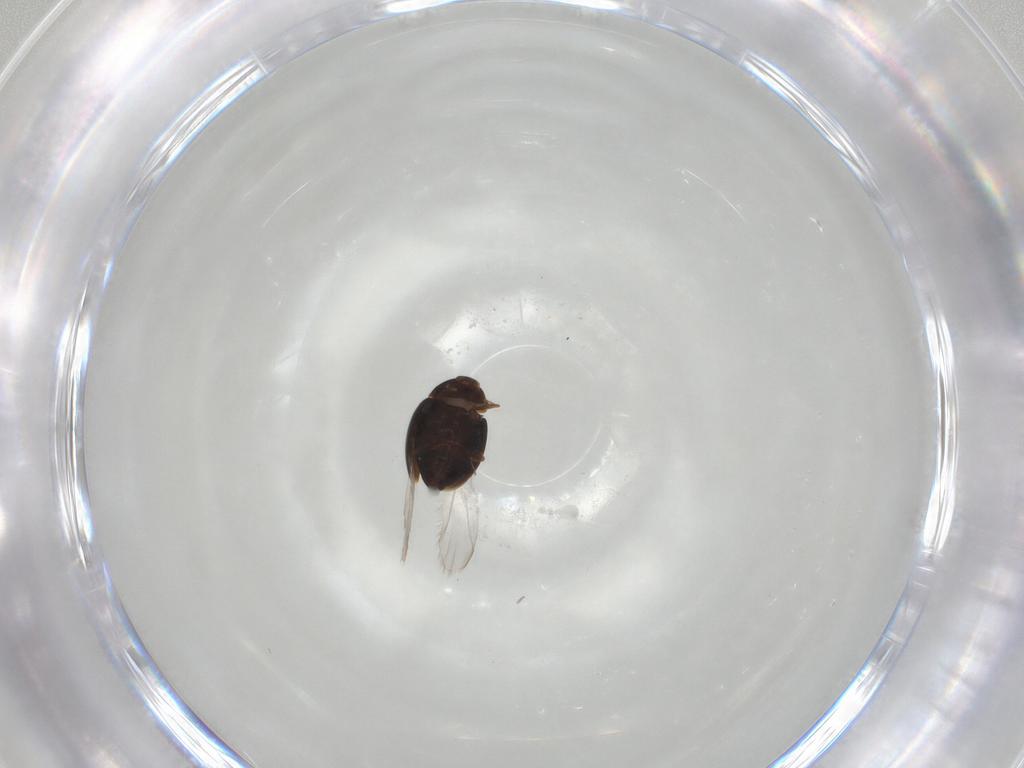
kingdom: Animalia
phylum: Arthropoda
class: Insecta
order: Coleoptera
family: Corylophidae
